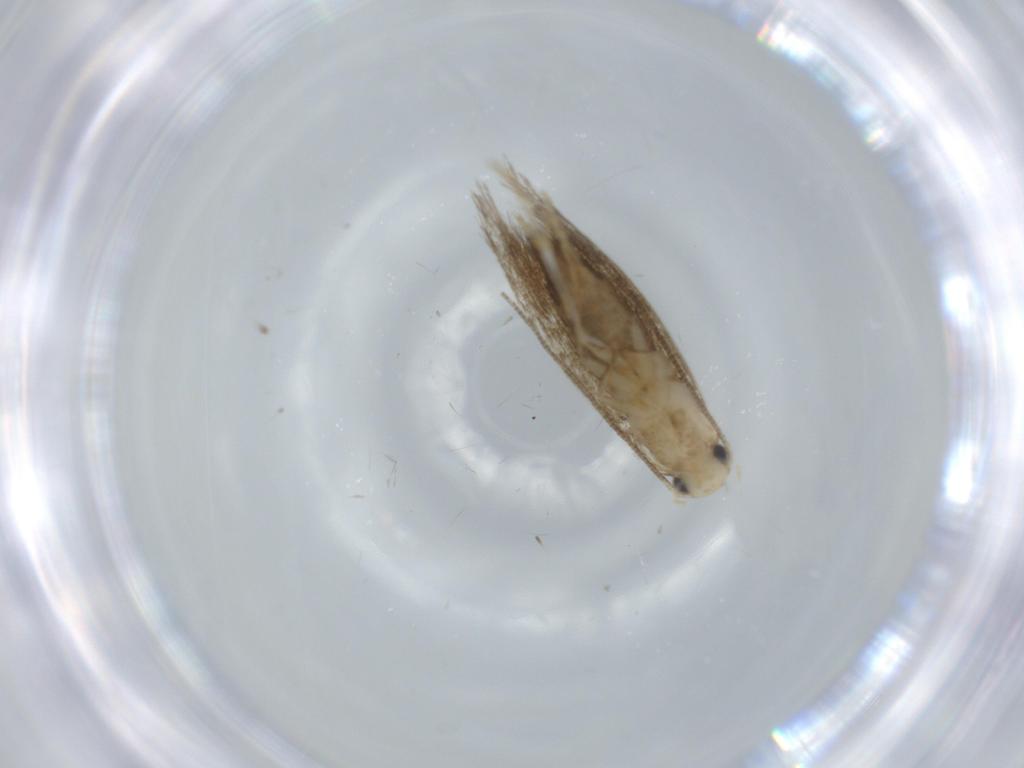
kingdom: Animalia
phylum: Arthropoda
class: Insecta
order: Lepidoptera
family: Tineidae
